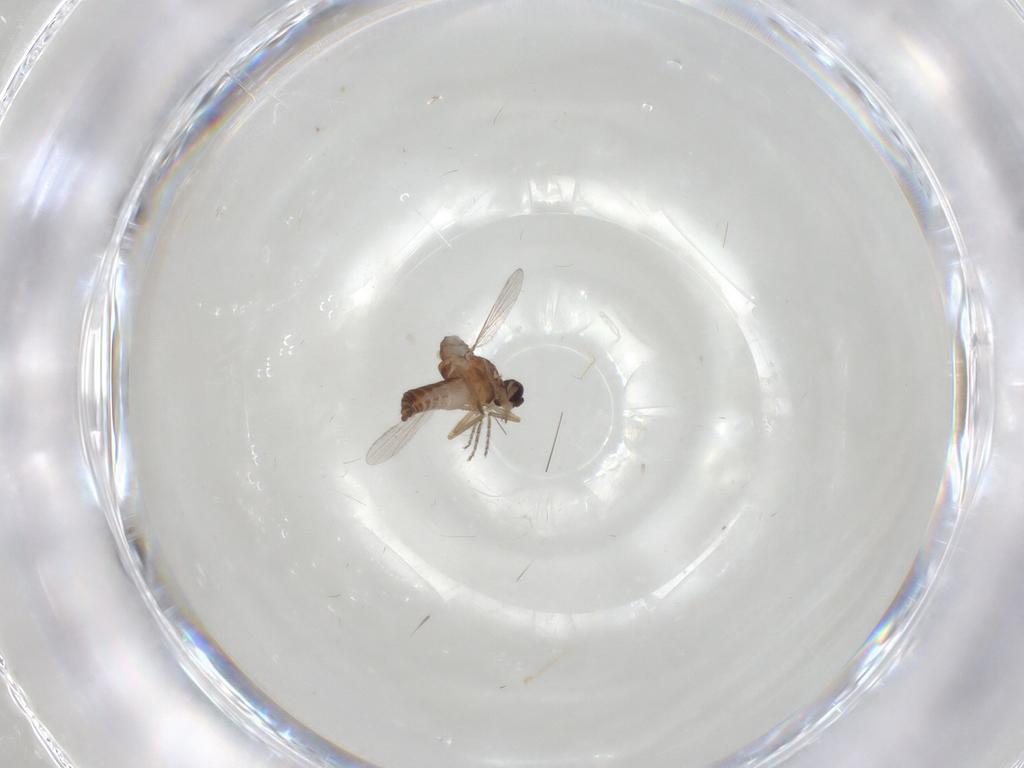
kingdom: Animalia
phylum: Arthropoda
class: Insecta
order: Diptera
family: Ceratopogonidae
